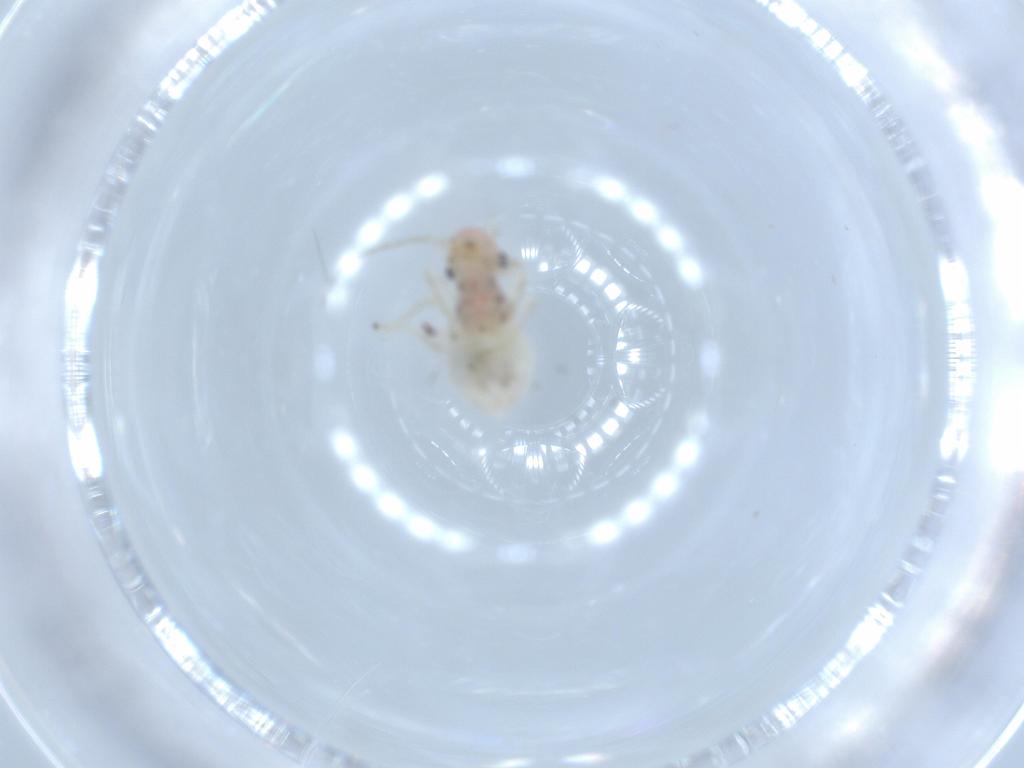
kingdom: Animalia
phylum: Arthropoda
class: Insecta
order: Psocodea
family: Amphipsocidae
